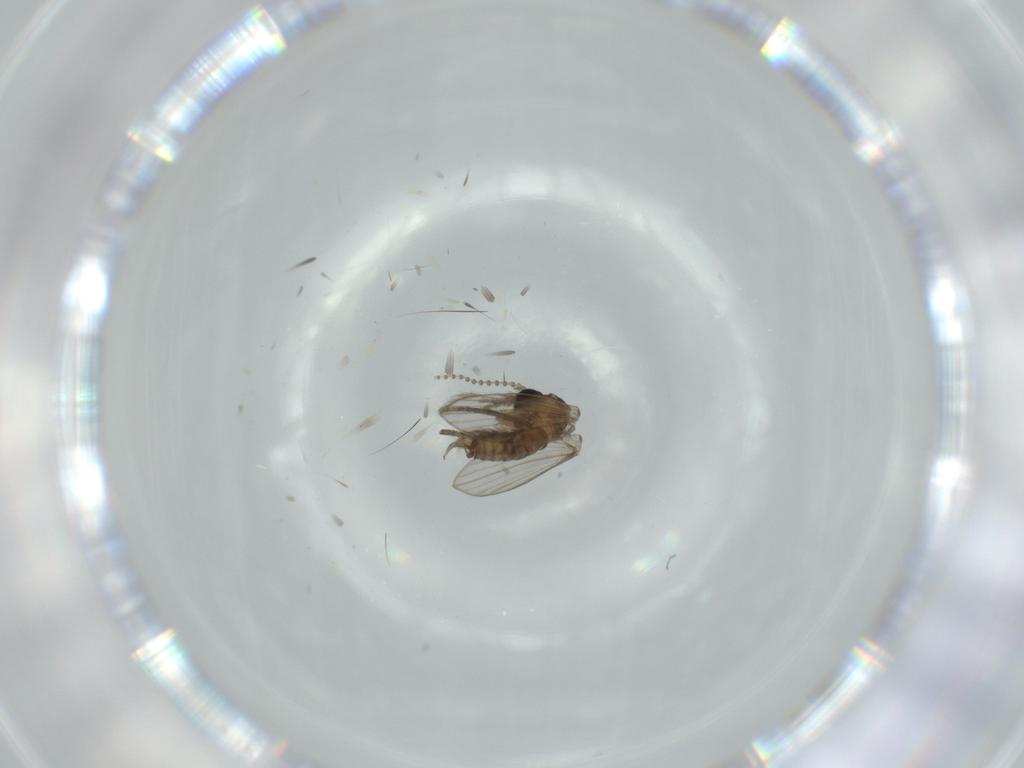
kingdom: Animalia
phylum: Arthropoda
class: Insecta
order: Diptera
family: Psychodidae
